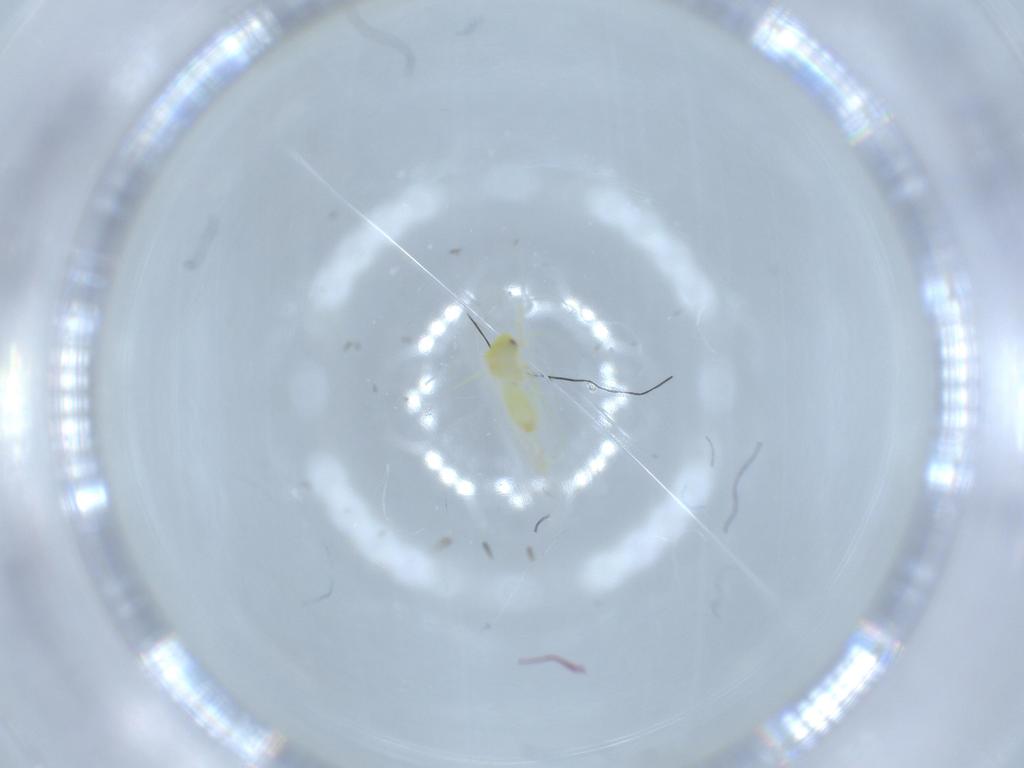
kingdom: Animalia
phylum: Arthropoda
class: Insecta
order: Hemiptera
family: Aleyrodidae
